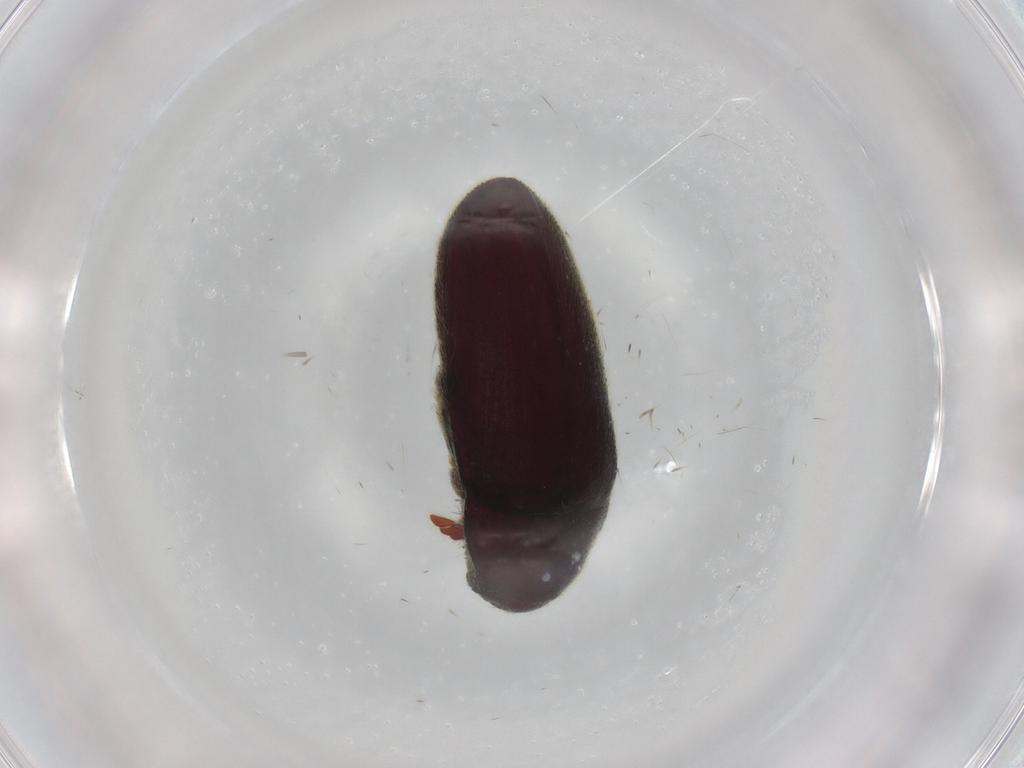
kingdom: Animalia
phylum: Arthropoda
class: Insecta
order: Coleoptera
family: Throscidae
